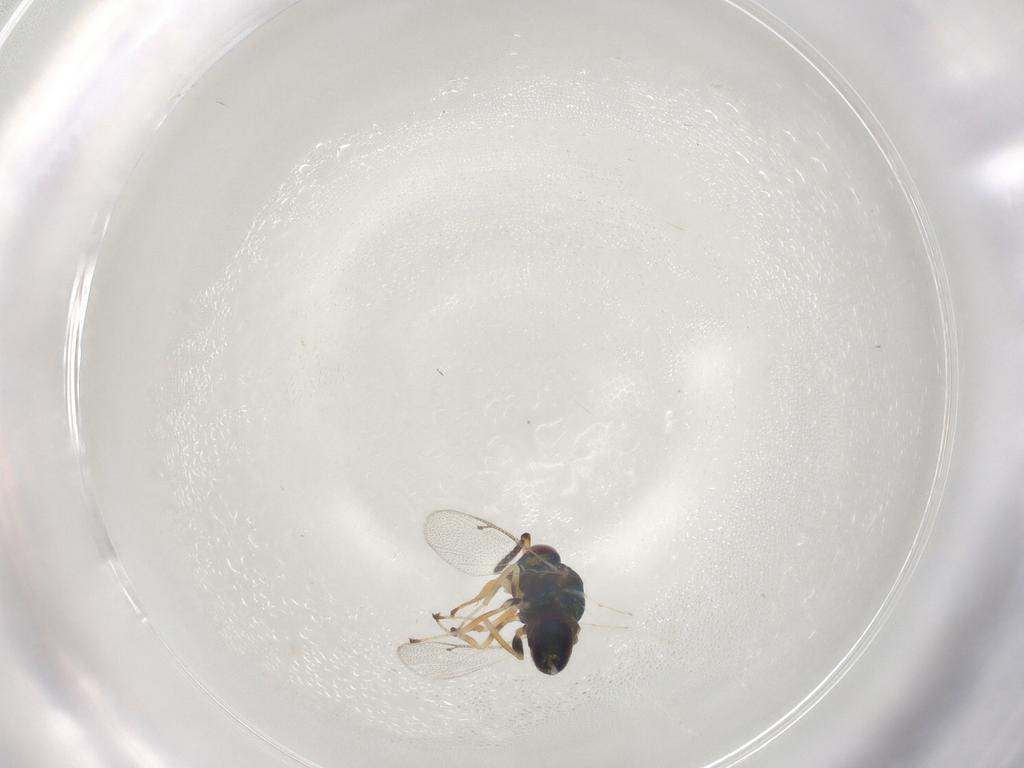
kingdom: Animalia
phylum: Arthropoda
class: Insecta
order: Hymenoptera
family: Mymaridae
